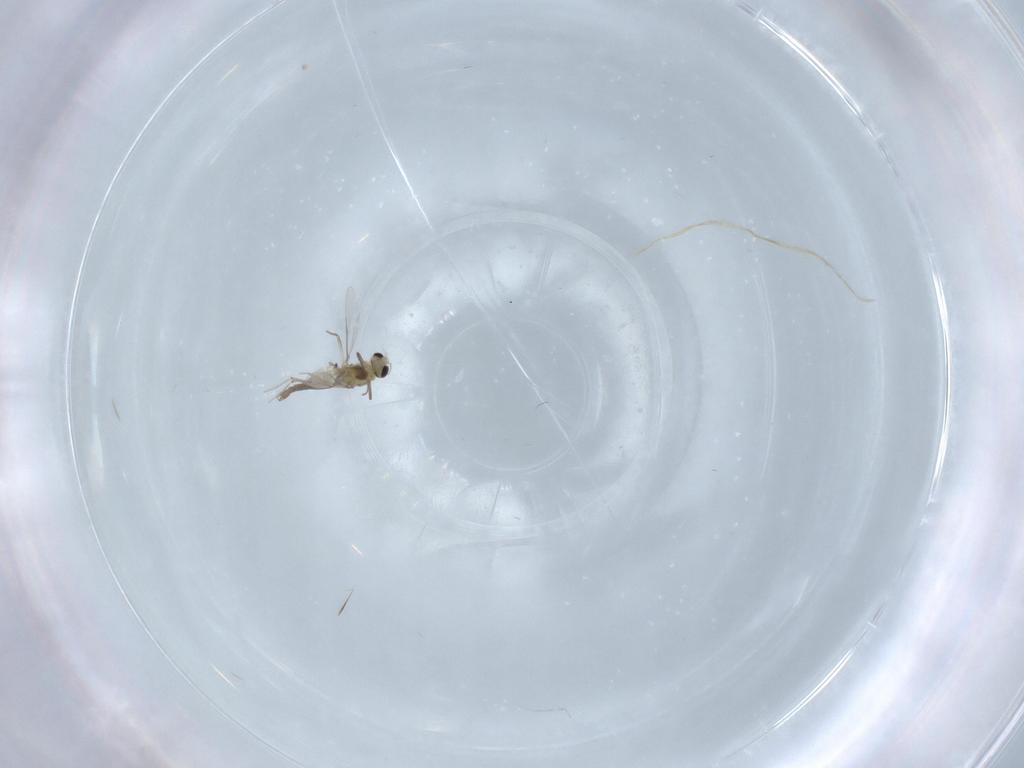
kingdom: Animalia
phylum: Arthropoda
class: Insecta
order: Diptera
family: Chironomidae
